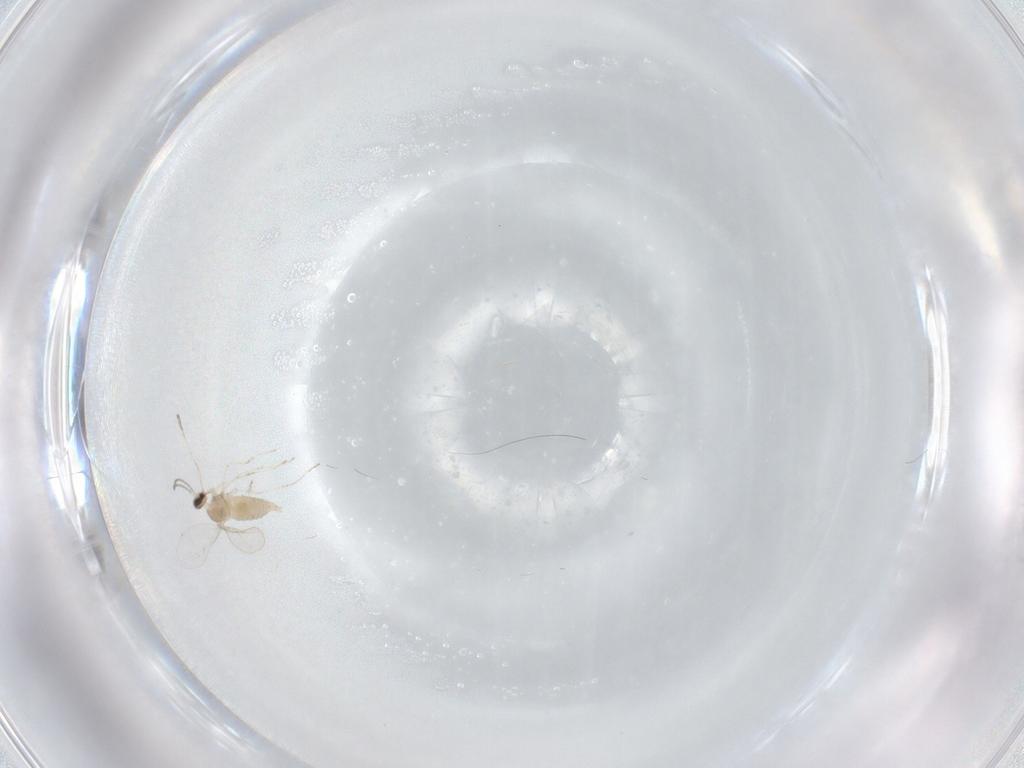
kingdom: Animalia
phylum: Arthropoda
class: Insecta
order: Diptera
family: Cecidomyiidae
